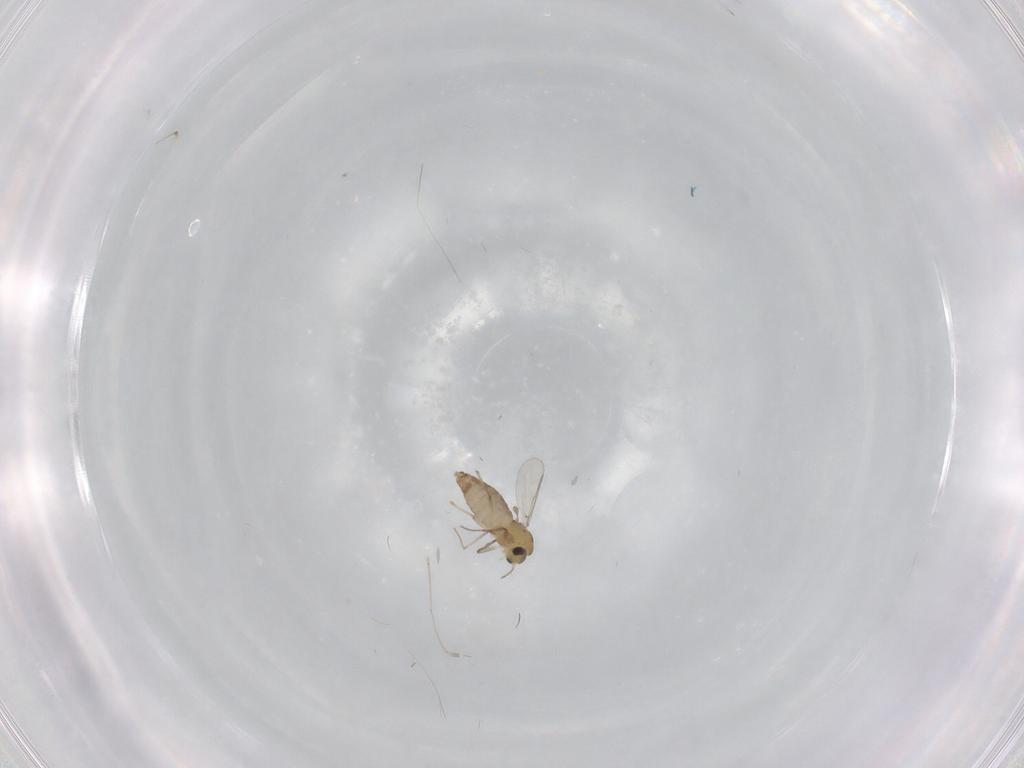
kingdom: Animalia
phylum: Arthropoda
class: Insecta
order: Diptera
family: Chironomidae
